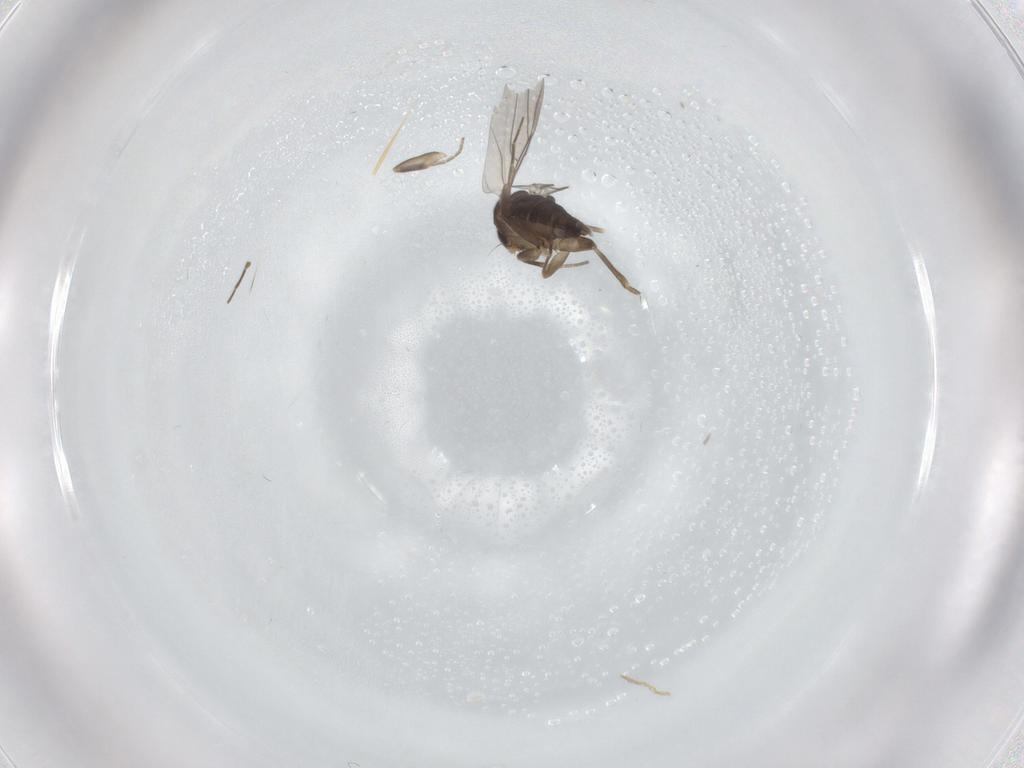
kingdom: Animalia
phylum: Arthropoda
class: Insecta
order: Diptera
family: Phoridae
